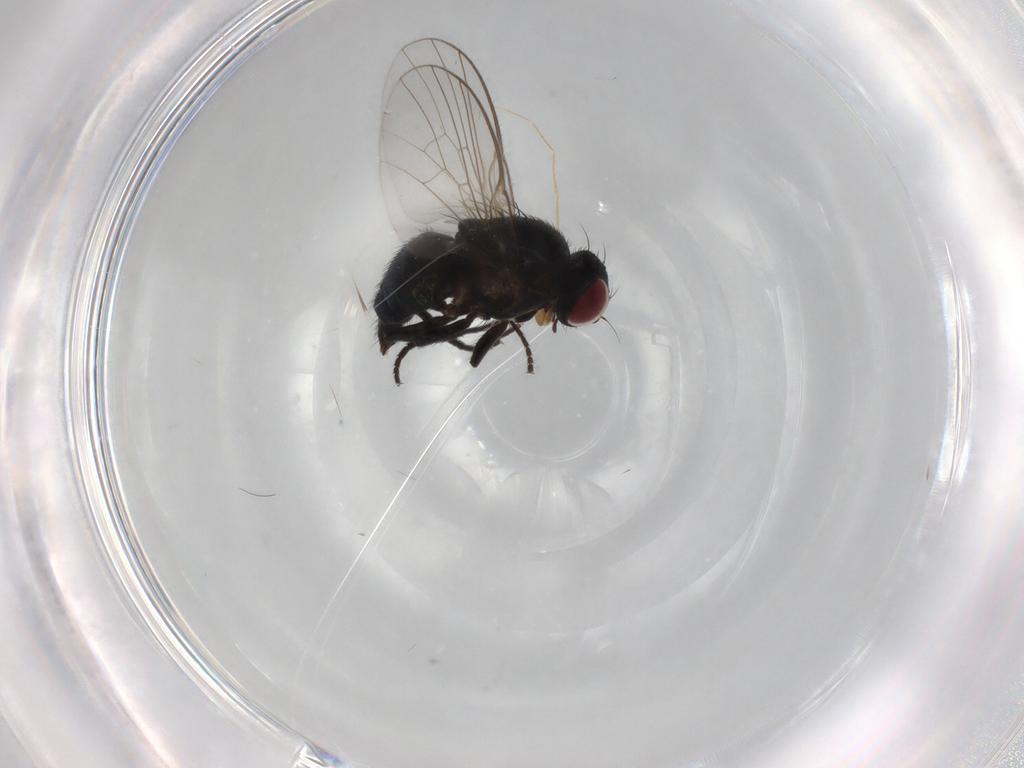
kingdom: Animalia
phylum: Arthropoda
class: Insecta
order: Diptera
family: Agromyzidae
